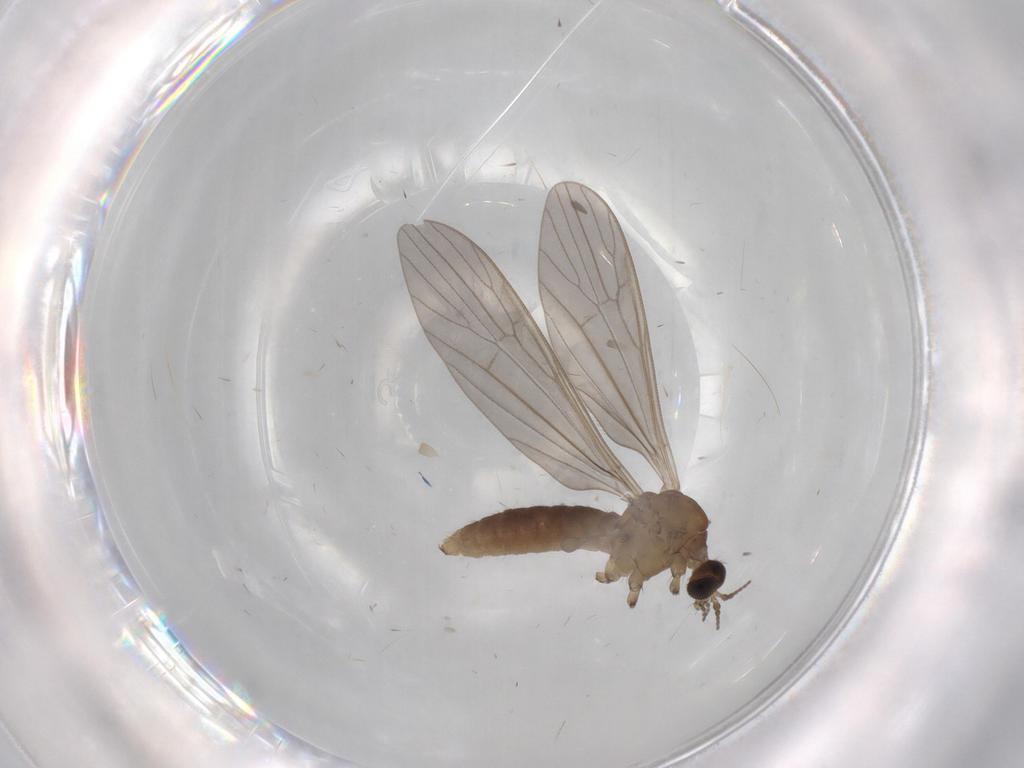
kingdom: Animalia
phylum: Arthropoda
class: Insecta
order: Diptera
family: Limoniidae
